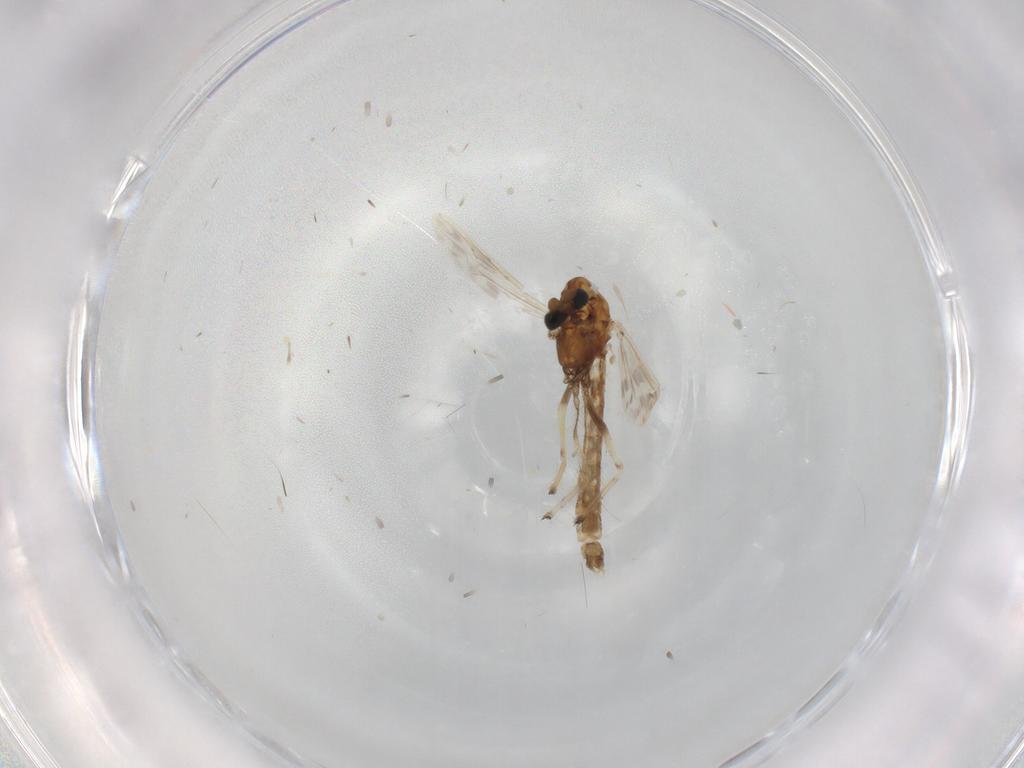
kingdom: Animalia
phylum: Arthropoda
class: Insecta
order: Diptera
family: Chironomidae
